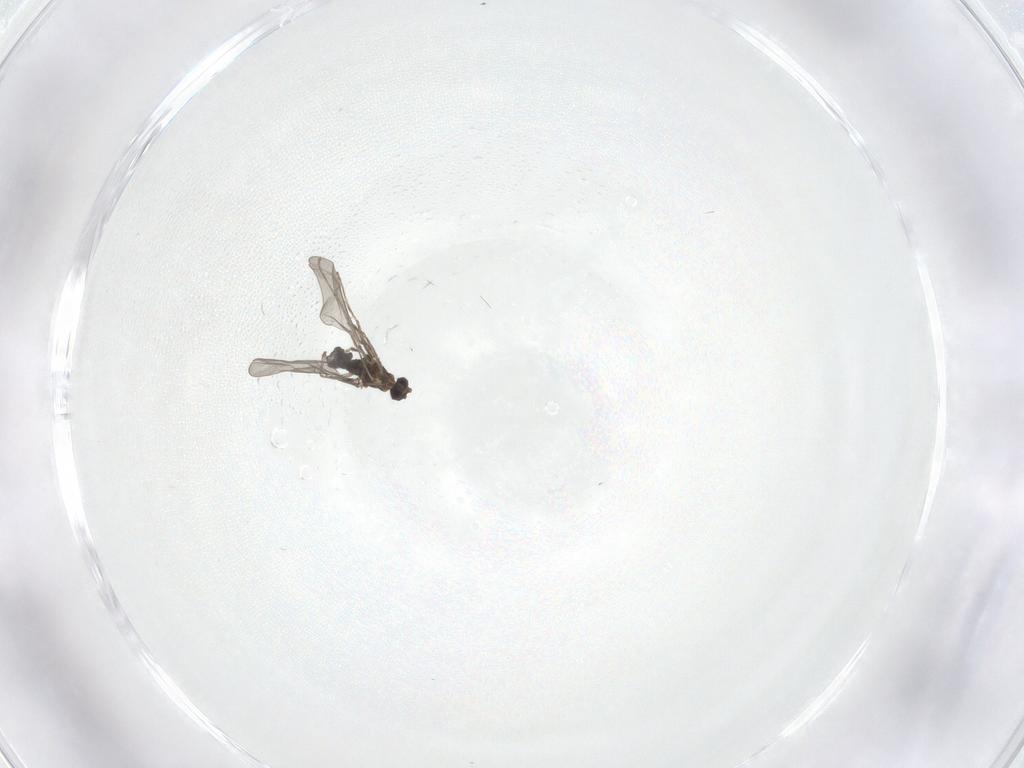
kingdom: Animalia
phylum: Arthropoda
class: Insecta
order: Diptera
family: Cecidomyiidae
